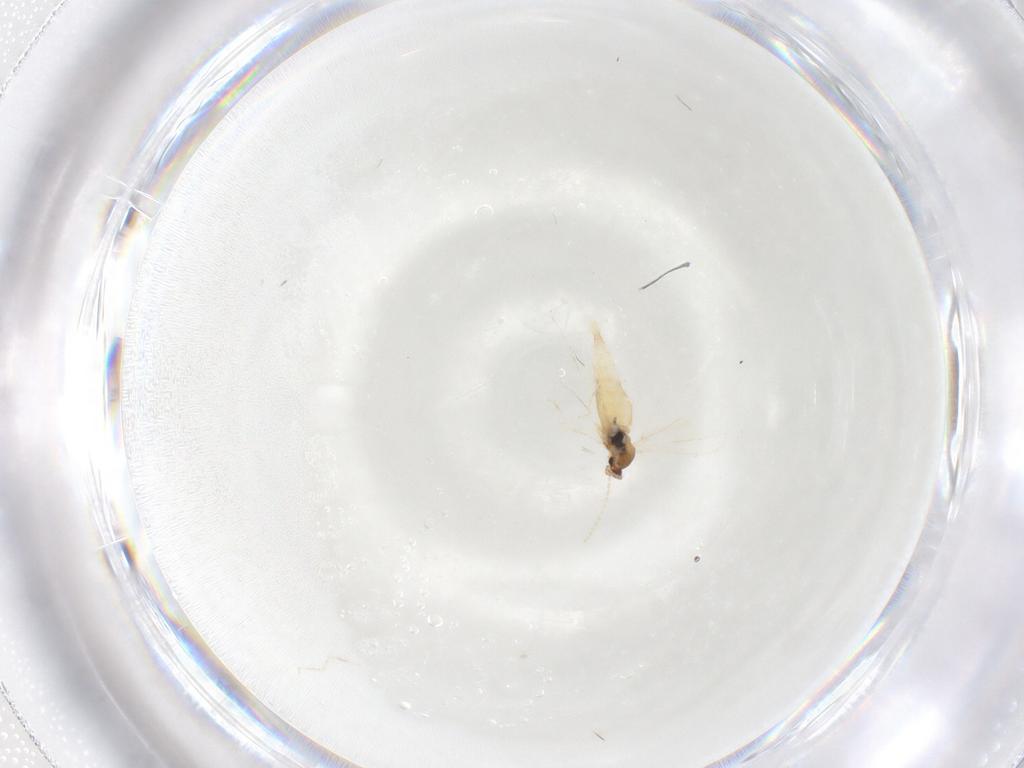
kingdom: Animalia
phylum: Arthropoda
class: Insecta
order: Diptera
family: Cecidomyiidae
